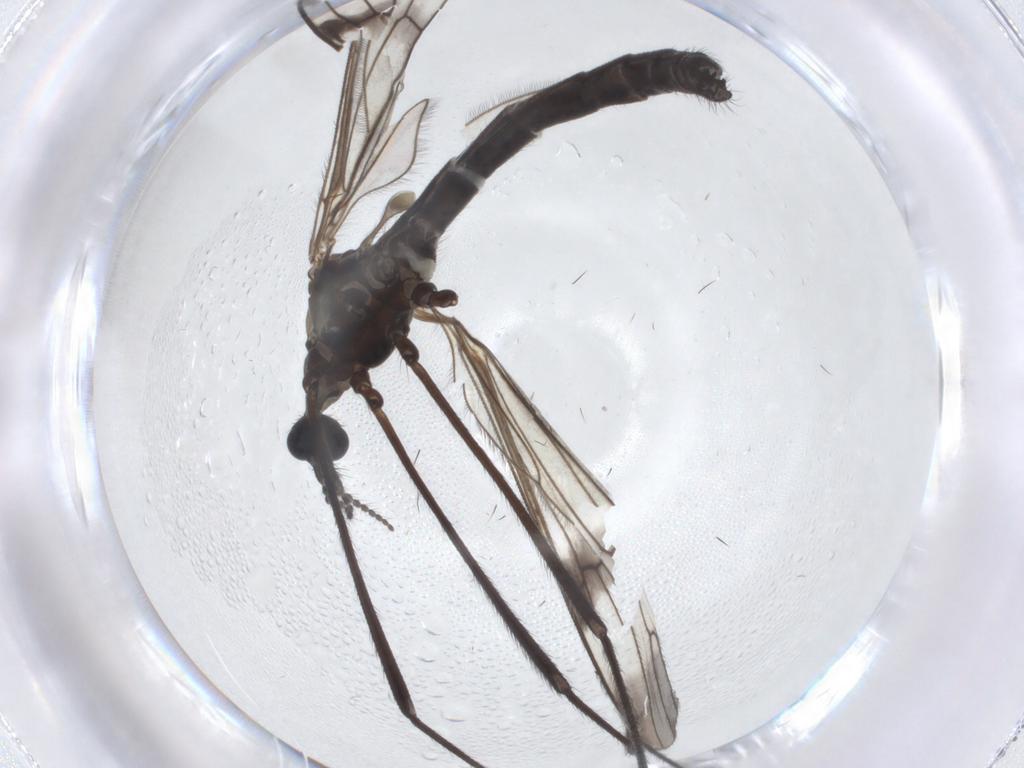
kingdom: Animalia
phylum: Arthropoda
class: Insecta
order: Diptera
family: Limoniidae
